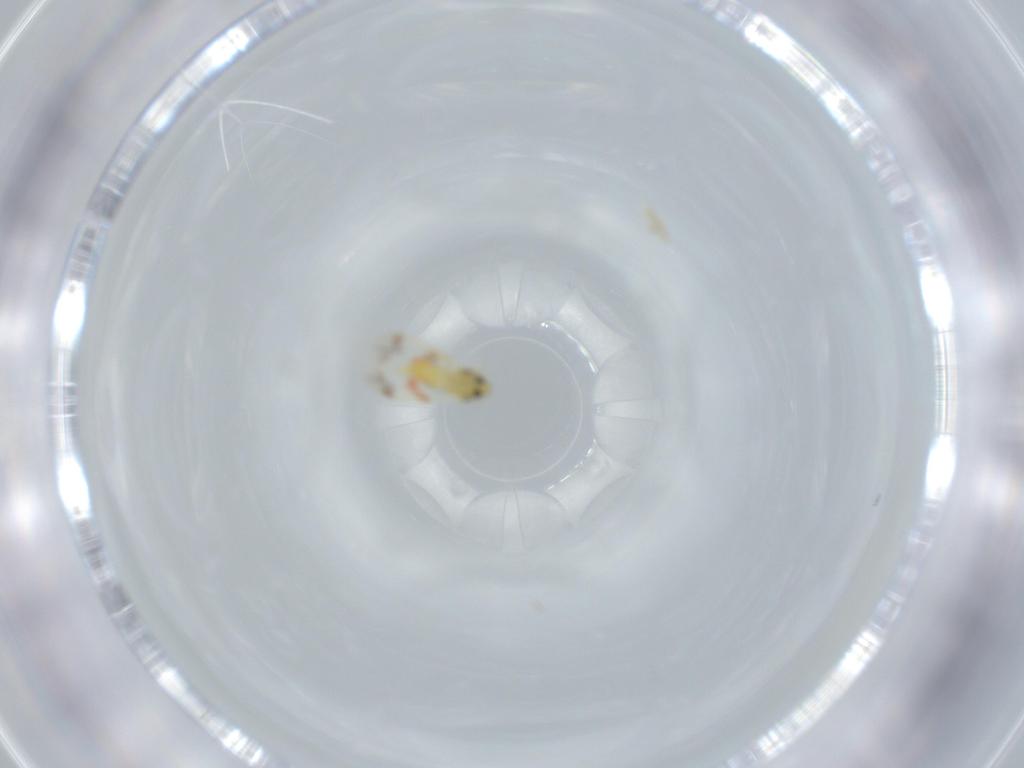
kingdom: Animalia
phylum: Arthropoda
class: Insecta
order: Hemiptera
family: Aleyrodidae
